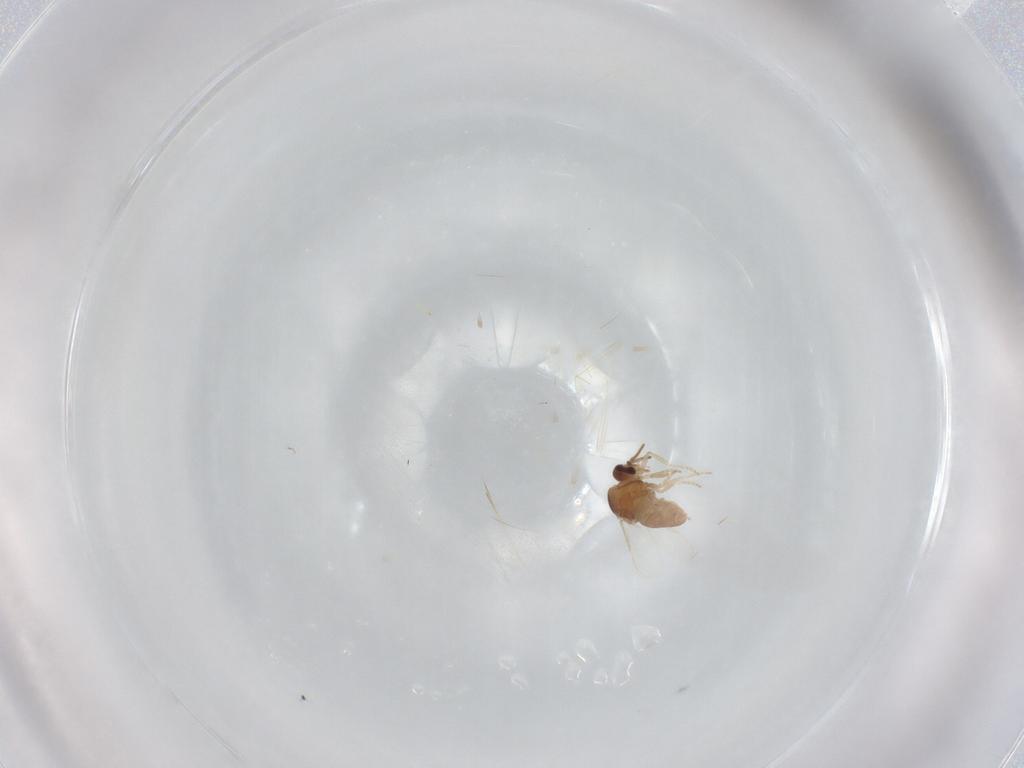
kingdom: Animalia
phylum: Arthropoda
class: Insecta
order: Diptera
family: Ceratopogonidae
